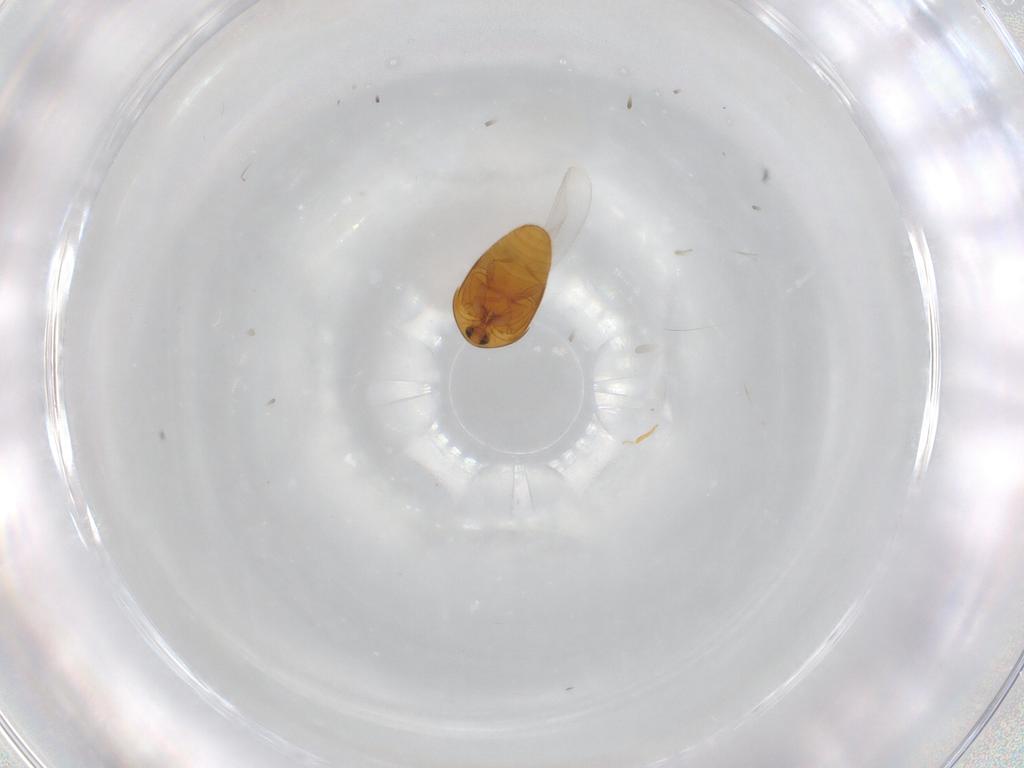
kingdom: Animalia
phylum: Arthropoda
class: Insecta
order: Coleoptera
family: Corylophidae
